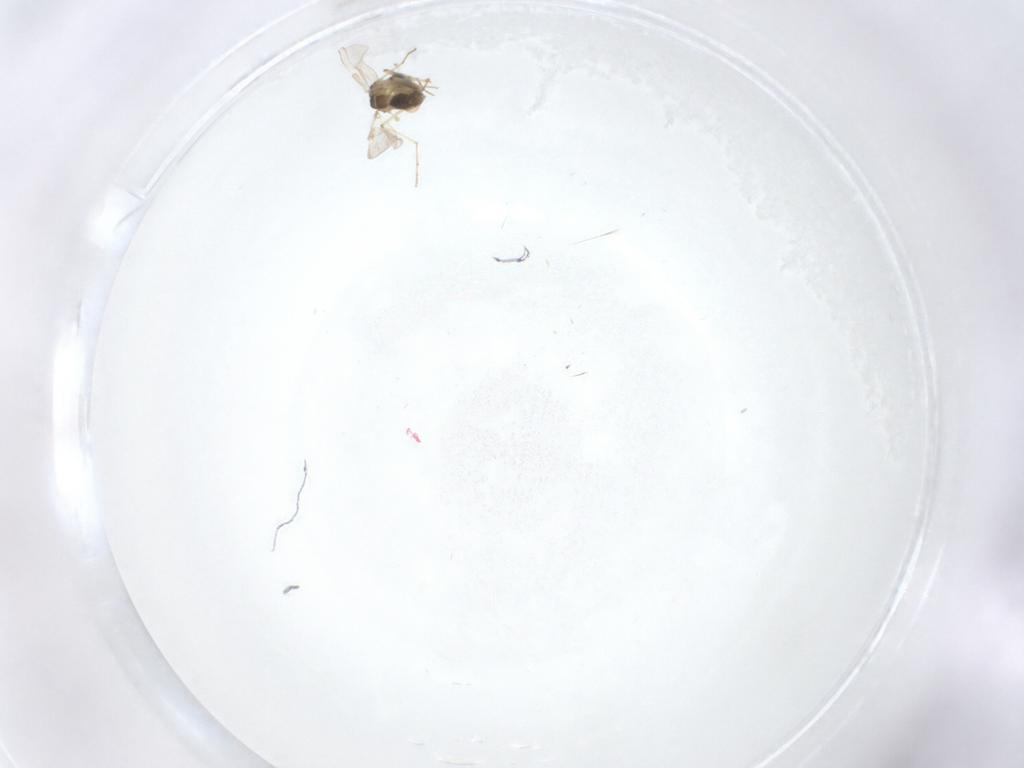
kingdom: Animalia
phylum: Arthropoda
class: Insecta
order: Diptera
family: Chironomidae
